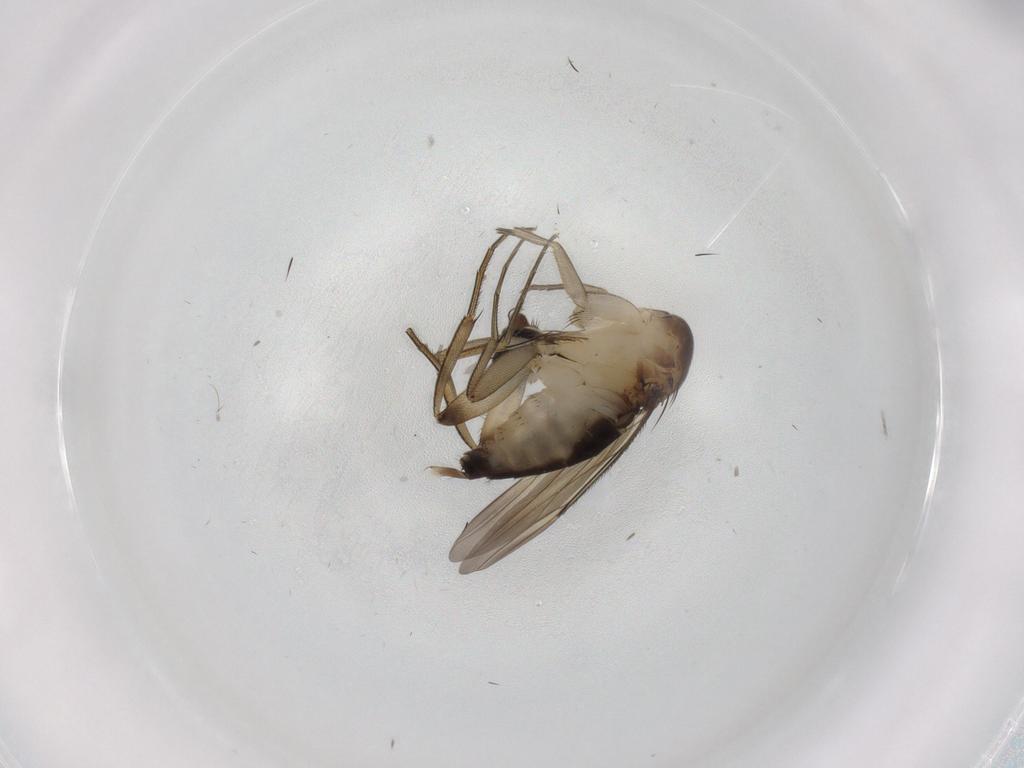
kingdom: Animalia
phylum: Arthropoda
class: Insecta
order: Diptera
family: Phoridae
